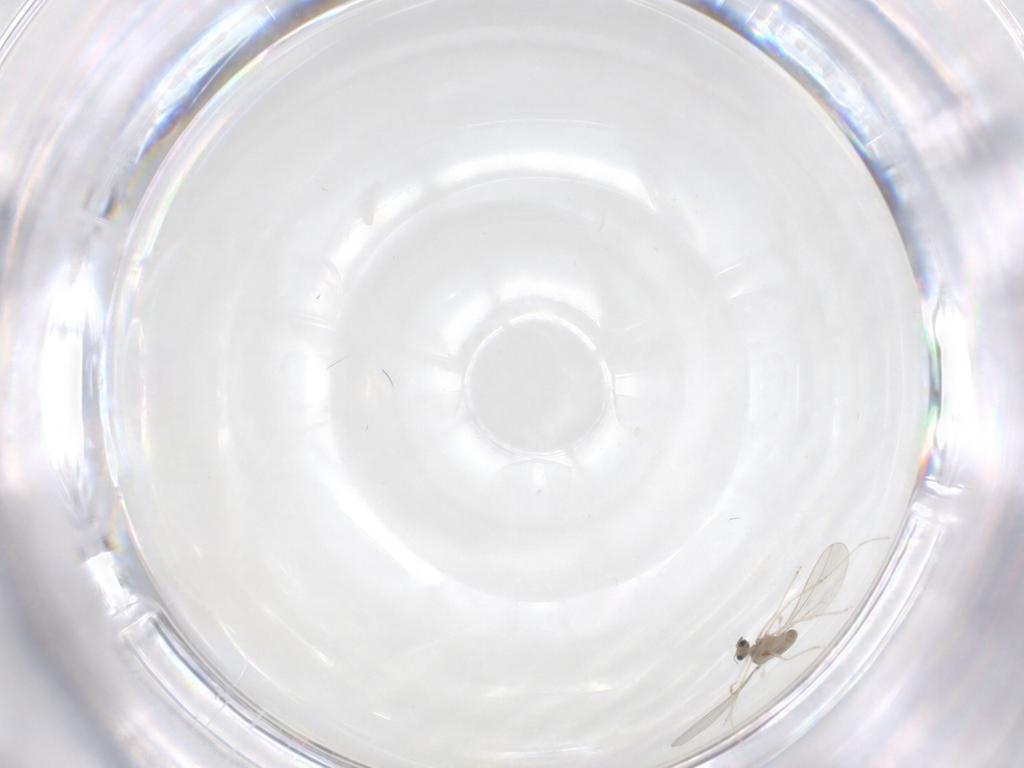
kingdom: Animalia
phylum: Arthropoda
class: Insecta
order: Diptera
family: Cecidomyiidae
